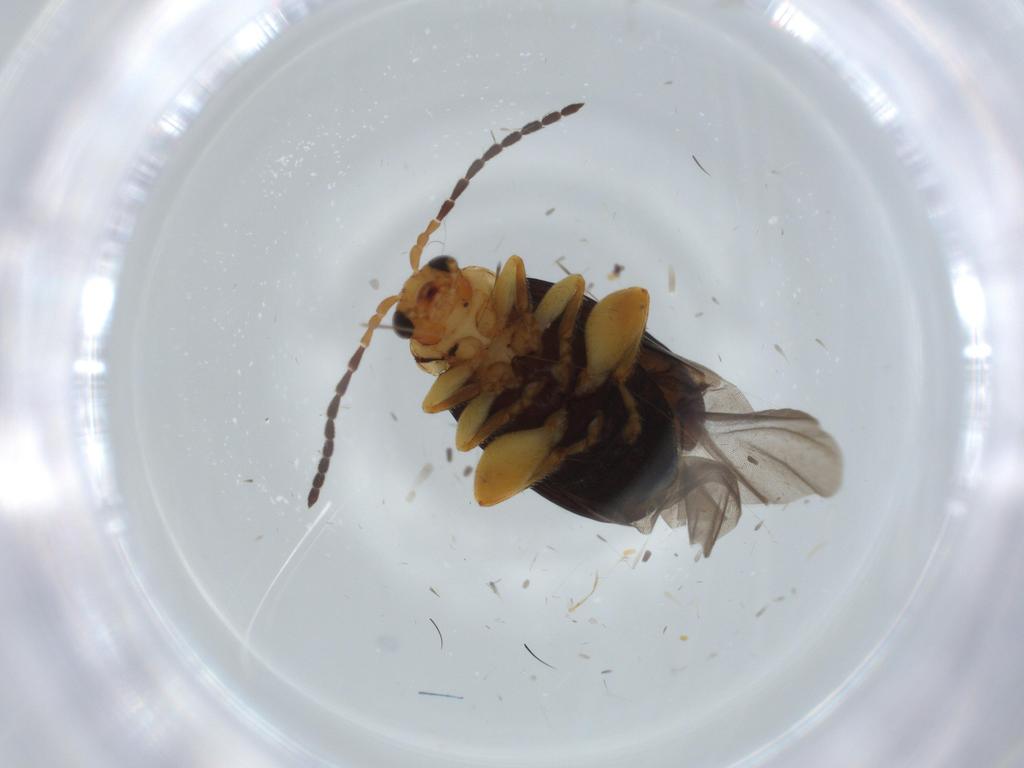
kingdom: Animalia
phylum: Arthropoda
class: Insecta
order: Coleoptera
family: Chrysomelidae
